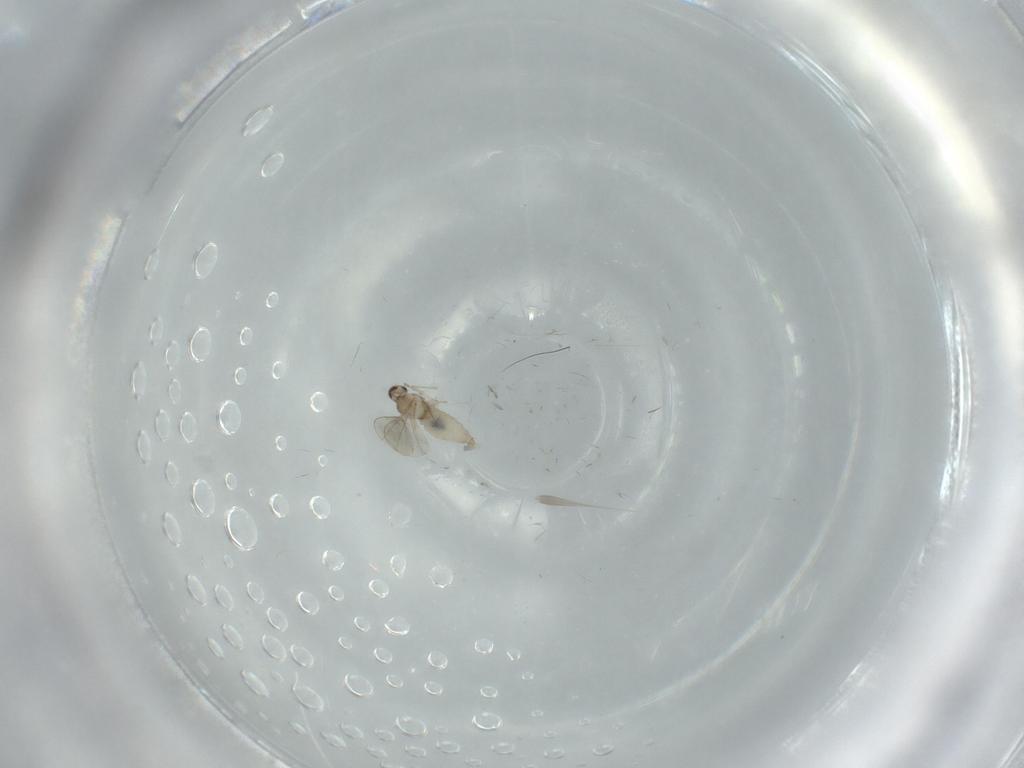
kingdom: Animalia
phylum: Arthropoda
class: Insecta
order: Diptera
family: Cecidomyiidae
